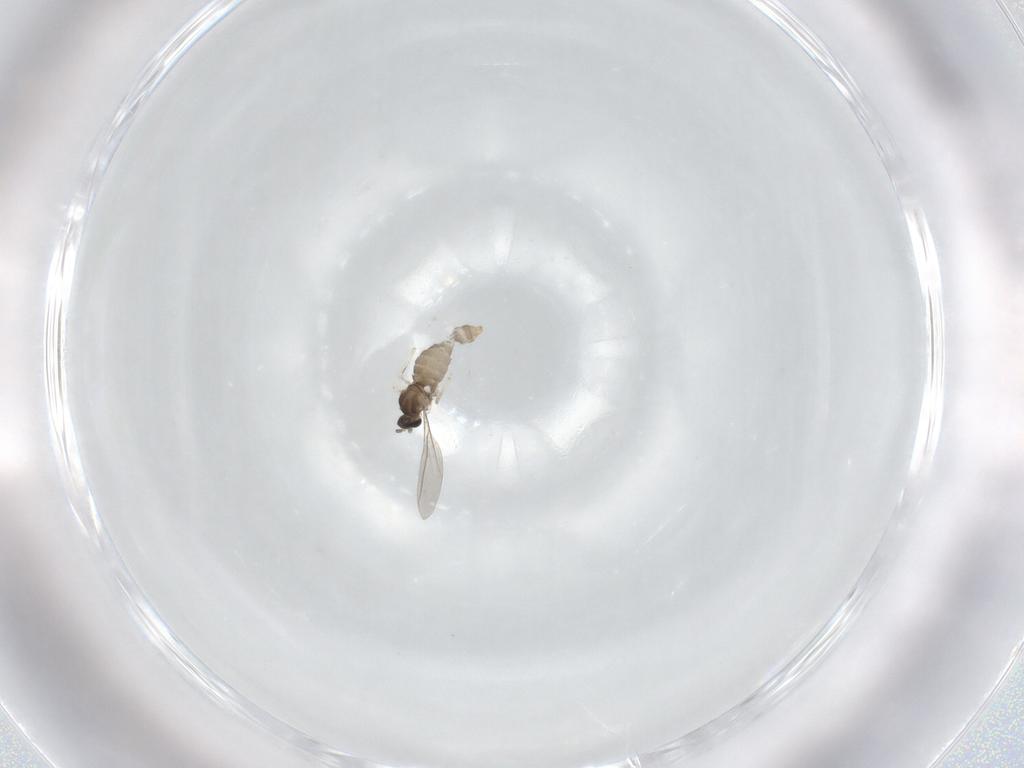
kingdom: Animalia
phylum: Arthropoda
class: Insecta
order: Diptera
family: Cecidomyiidae
